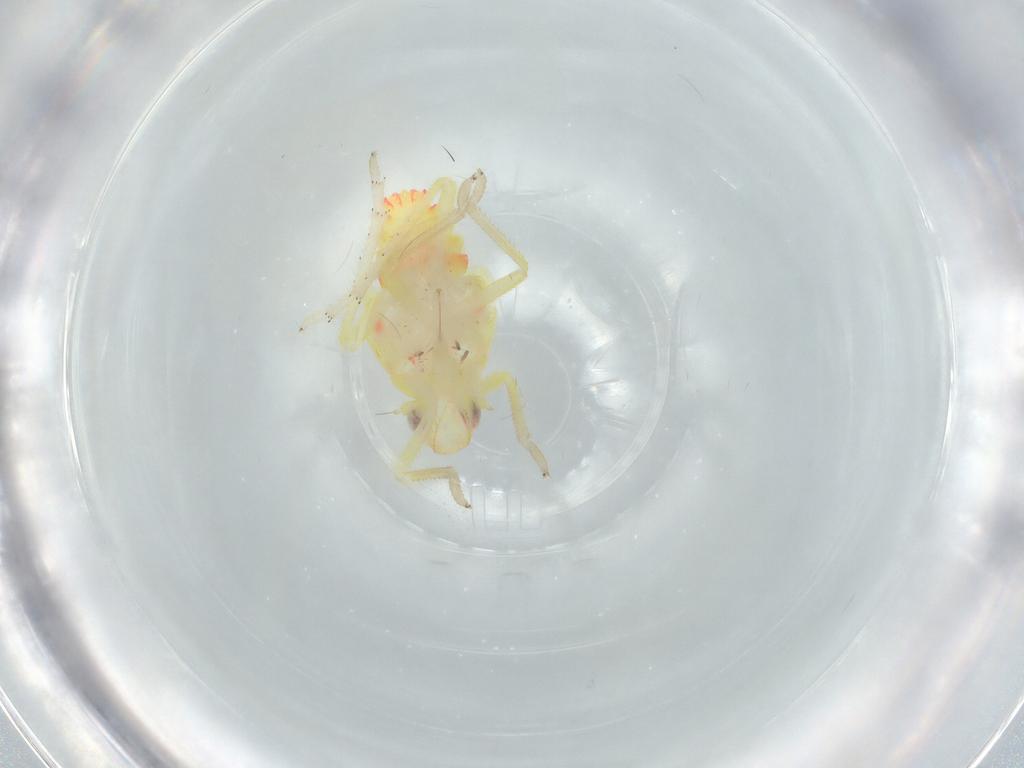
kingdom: Animalia
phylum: Arthropoda
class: Insecta
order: Hemiptera
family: Tropiduchidae
